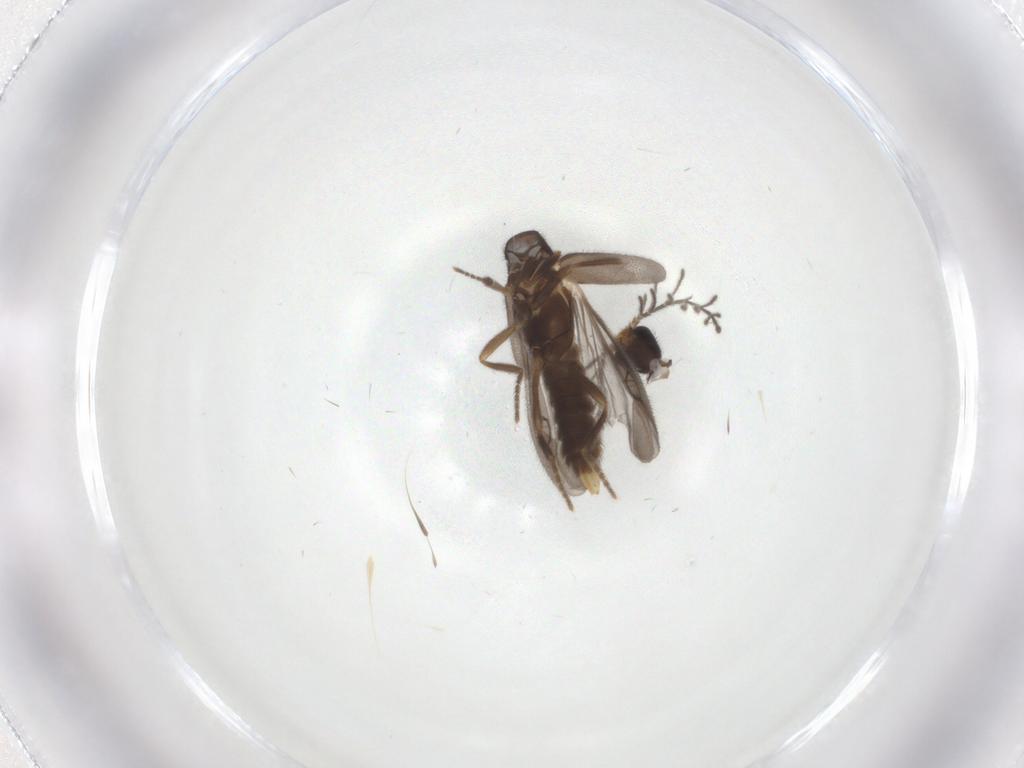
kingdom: Animalia
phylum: Arthropoda
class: Insecta
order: Coleoptera
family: Phengodidae
